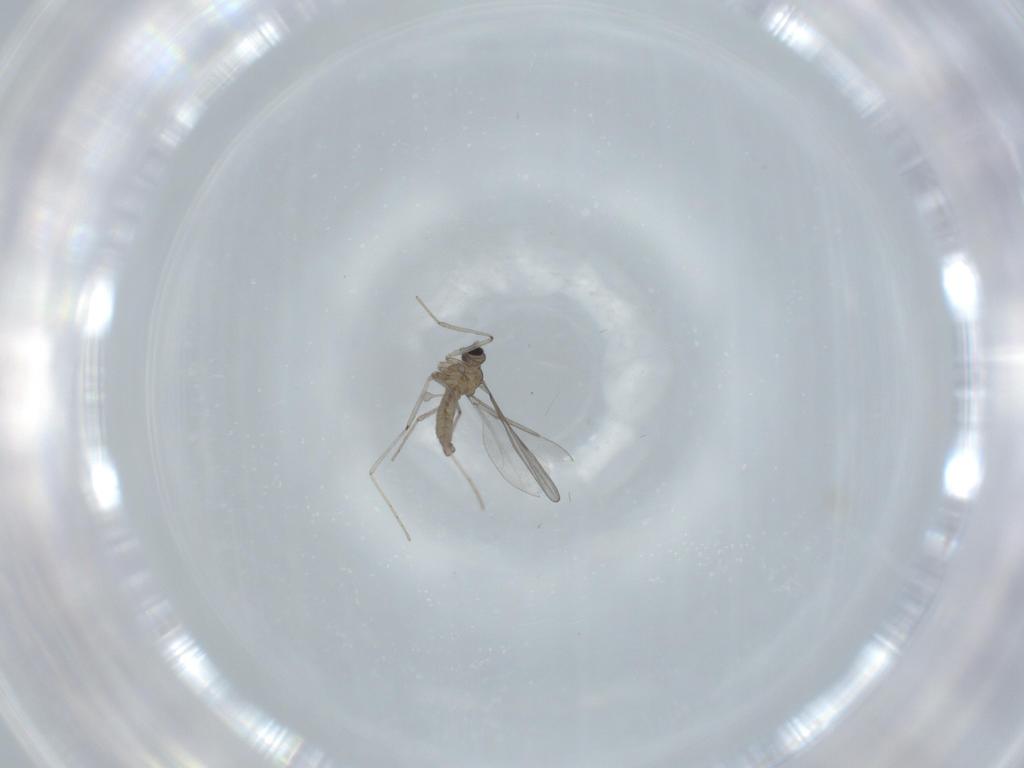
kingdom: Animalia
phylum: Arthropoda
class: Insecta
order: Diptera
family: Cecidomyiidae
